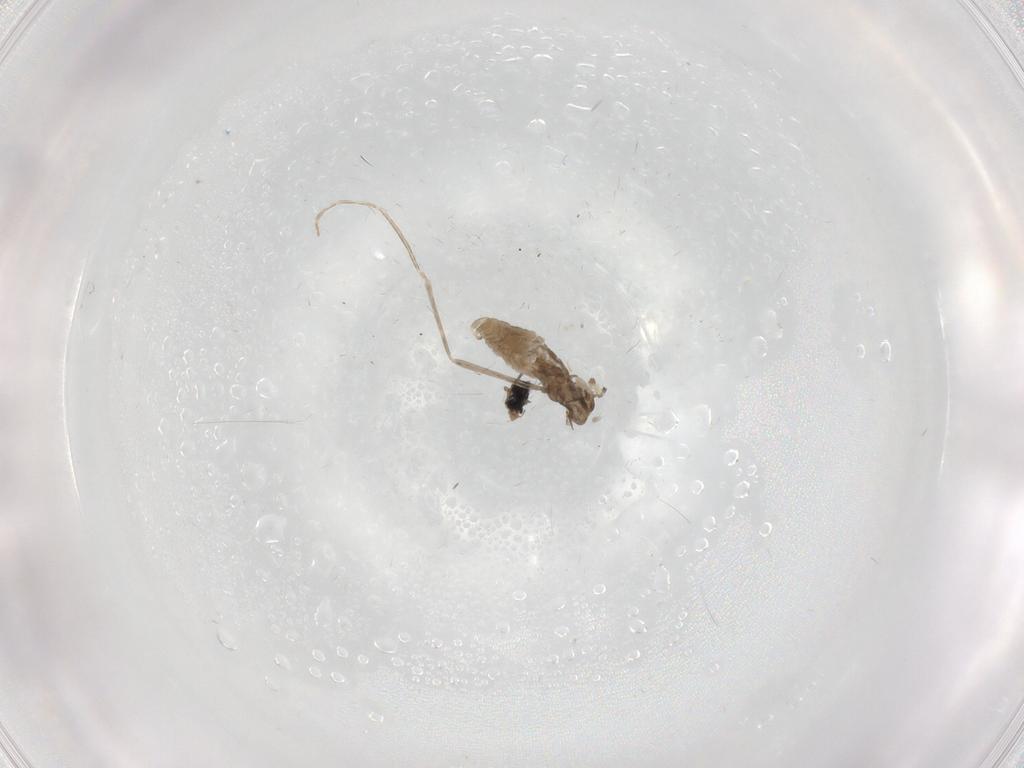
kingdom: Animalia
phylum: Arthropoda
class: Insecta
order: Diptera
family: Cecidomyiidae
